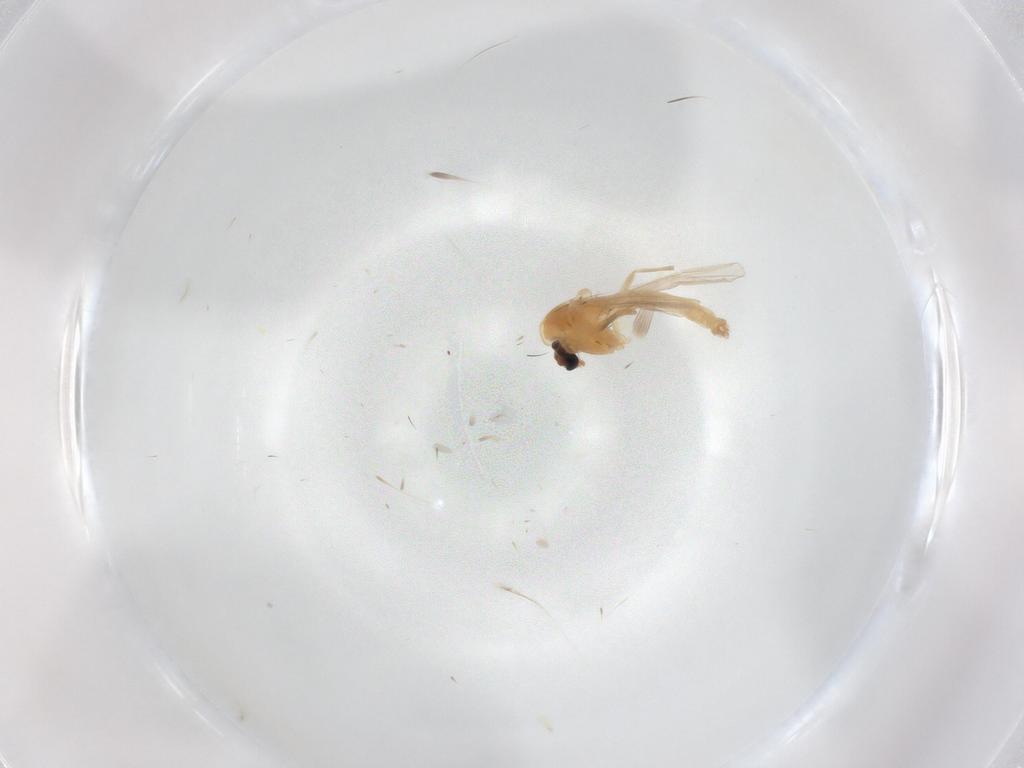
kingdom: Animalia
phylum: Arthropoda
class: Insecta
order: Diptera
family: Chironomidae
